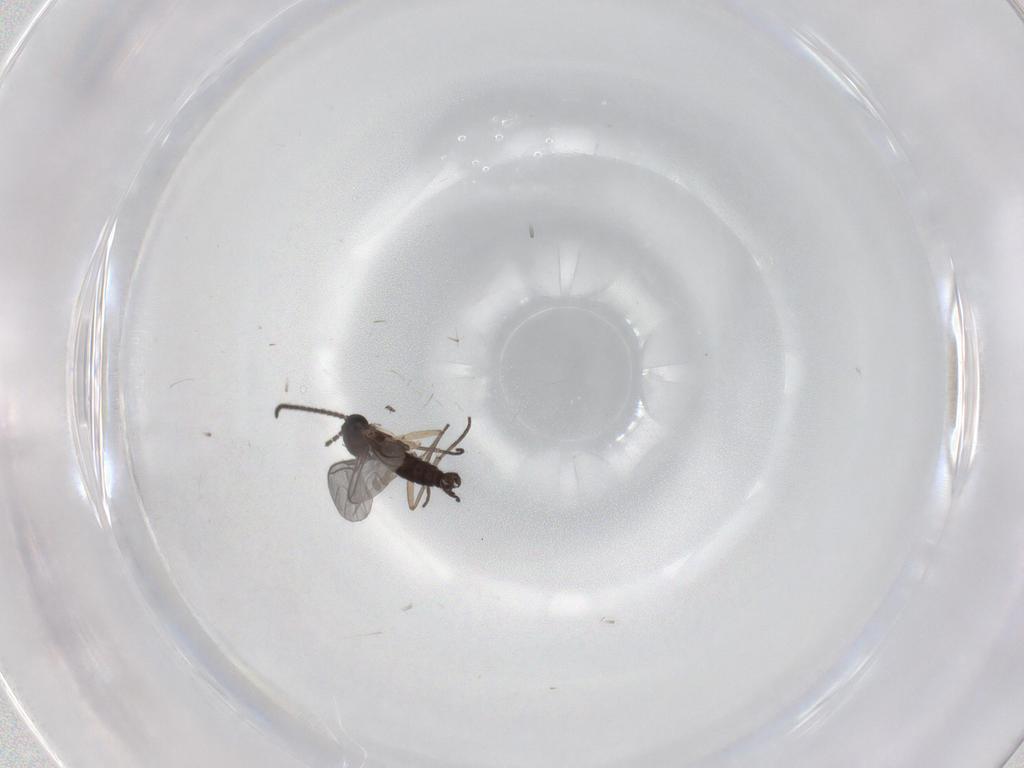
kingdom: Animalia
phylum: Arthropoda
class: Insecta
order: Diptera
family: Sciaridae
